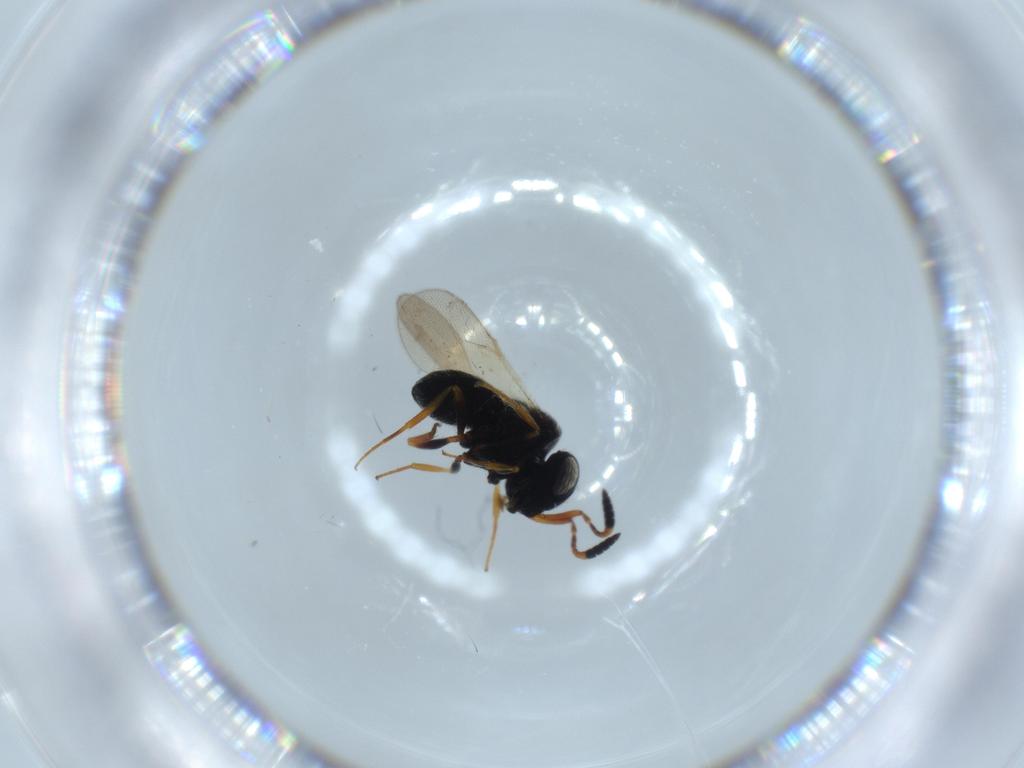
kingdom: Animalia
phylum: Arthropoda
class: Insecta
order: Hymenoptera
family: Scelionidae
